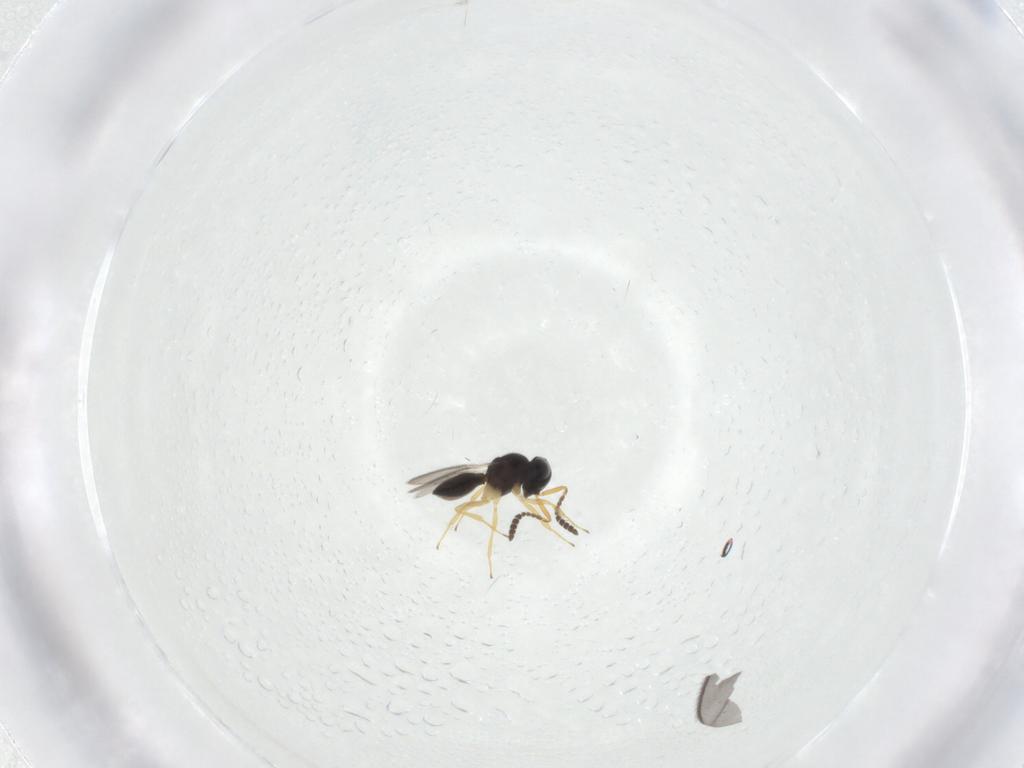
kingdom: Animalia
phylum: Arthropoda
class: Insecta
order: Hymenoptera
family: Scelionidae
